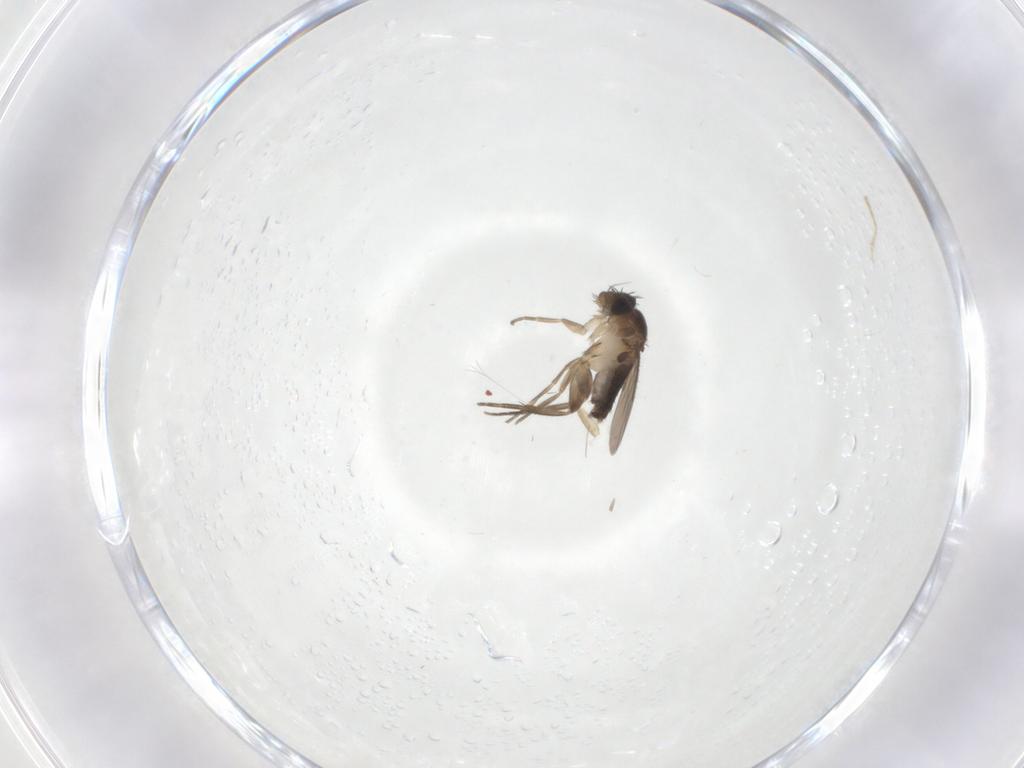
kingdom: Animalia
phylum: Arthropoda
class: Insecta
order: Diptera
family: Phoridae
